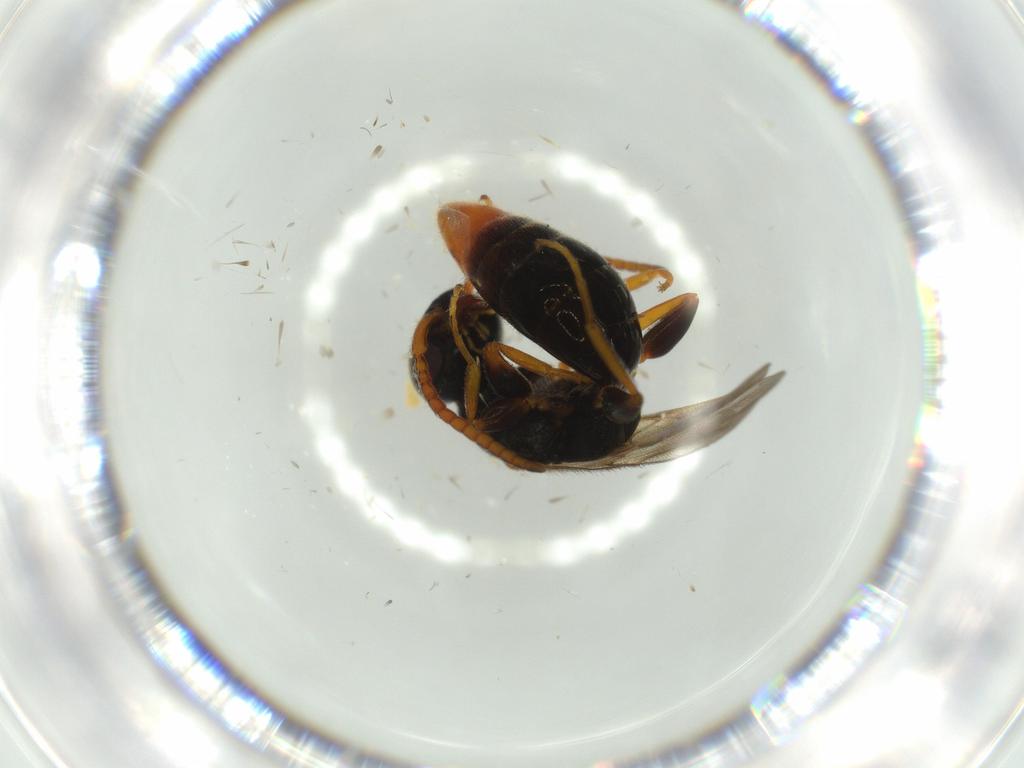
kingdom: Animalia
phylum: Arthropoda
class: Insecta
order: Hymenoptera
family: Bethylidae
